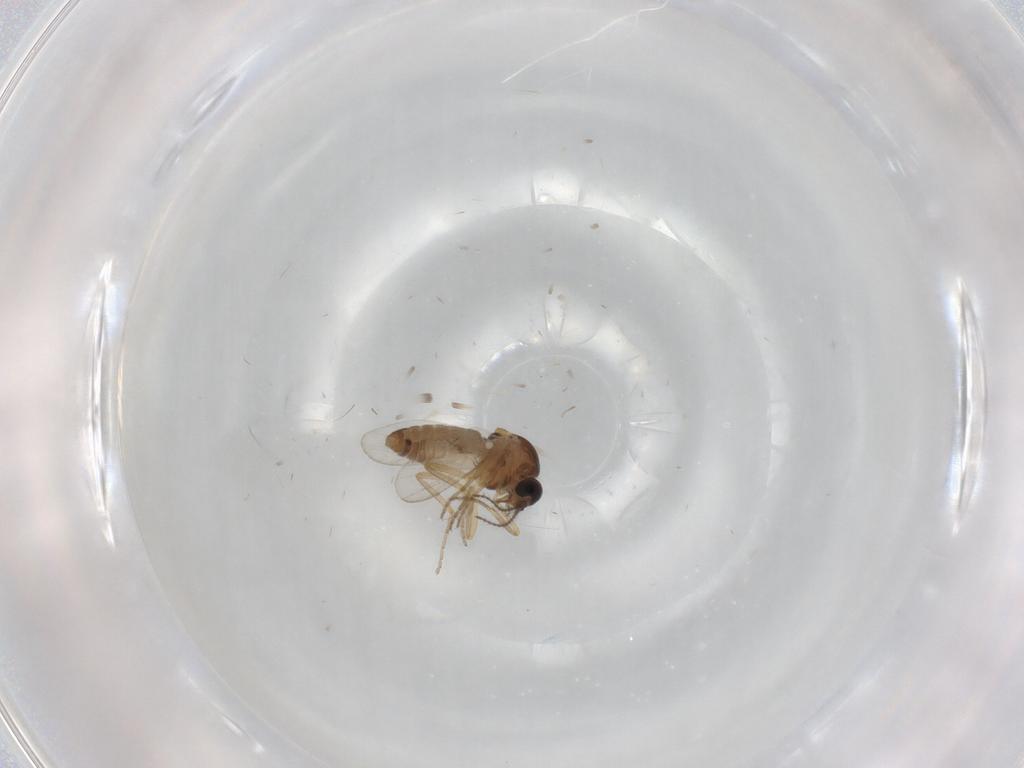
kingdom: Animalia
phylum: Arthropoda
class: Insecta
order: Diptera
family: Ceratopogonidae
